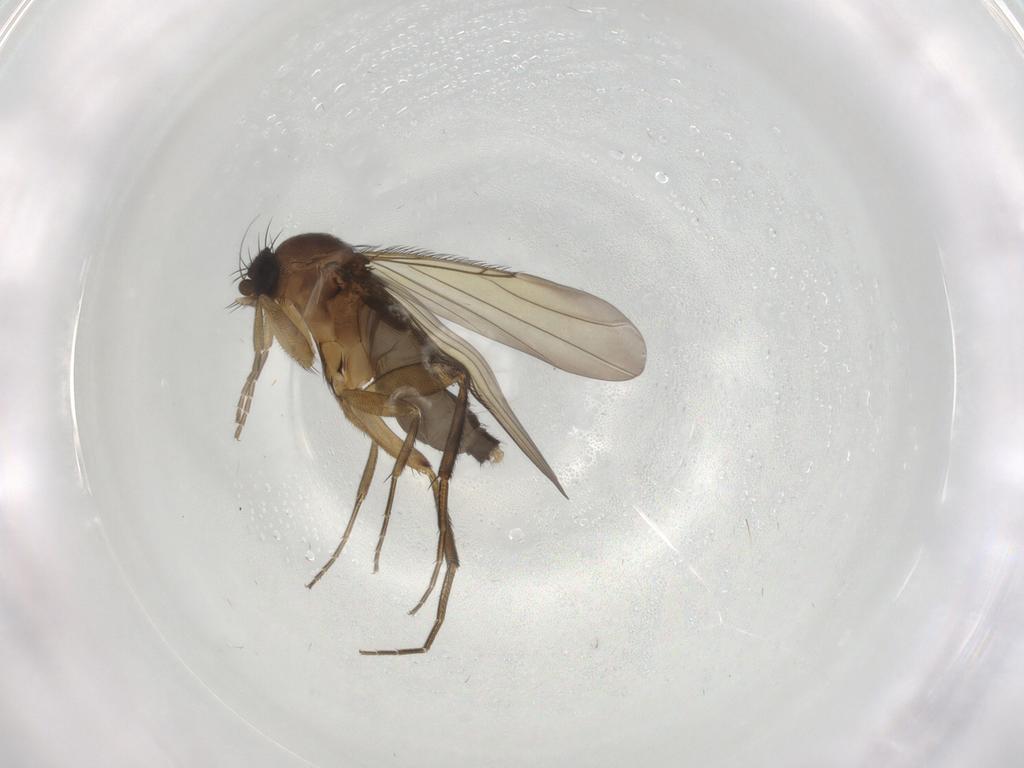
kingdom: Animalia
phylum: Arthropoda
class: Insecta
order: Diptera
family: Phoridae
